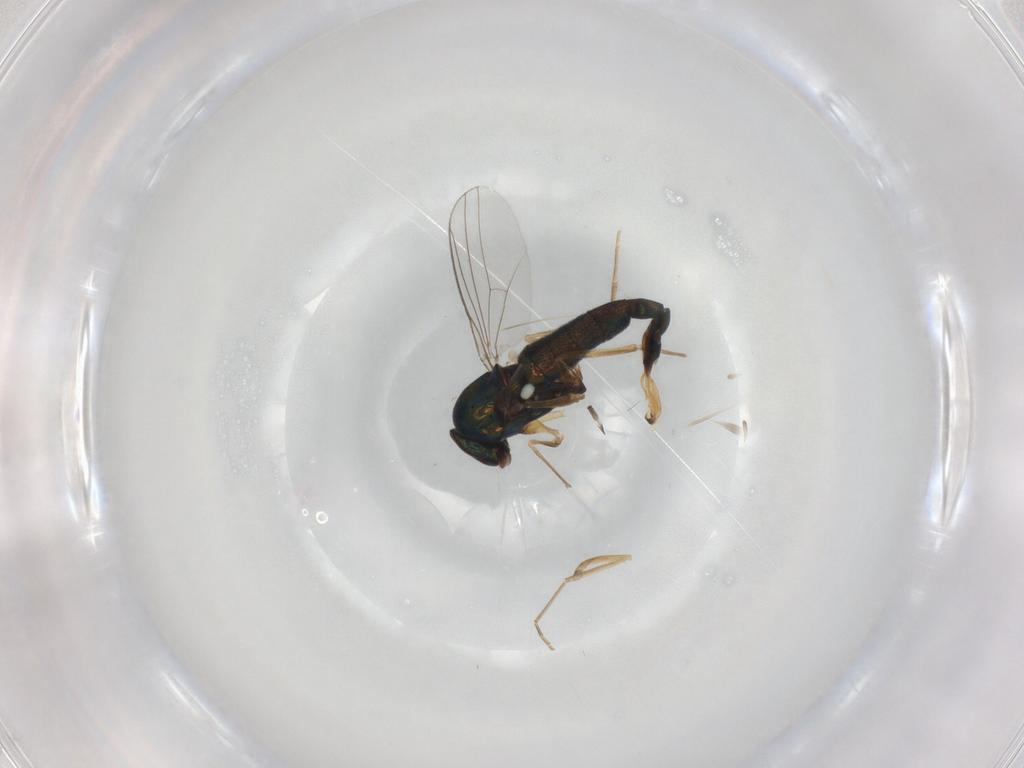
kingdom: Animalia
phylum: Arthropoda
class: Insecta
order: Diptera
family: Dolichopodidae
